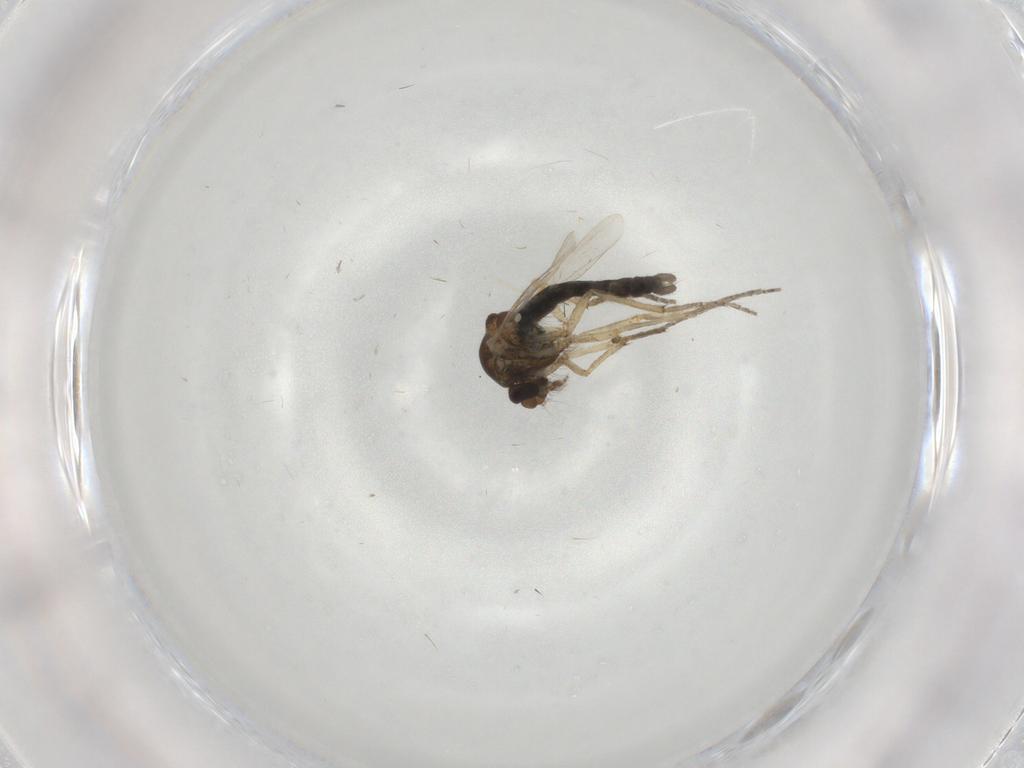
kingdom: Animalia
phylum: Arthropoda
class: Insecta
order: Diptera
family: Ceratopogonidae
